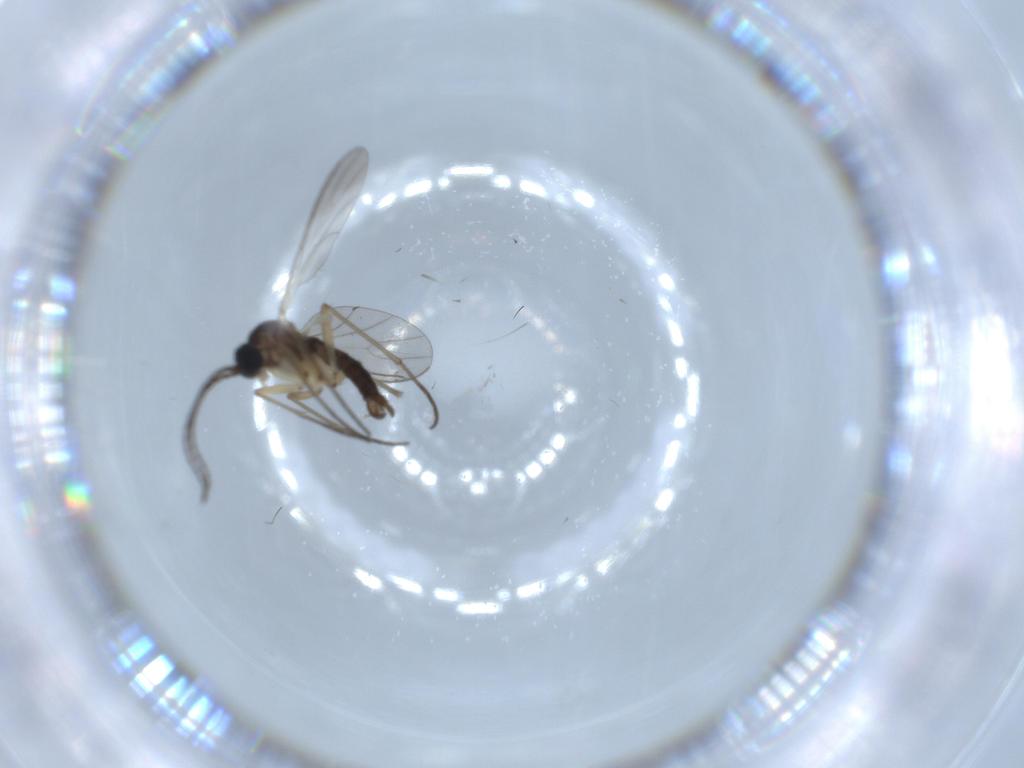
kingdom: Animalia
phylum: Arthropoda
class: Insecta
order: Diptera
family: Sciaridae
